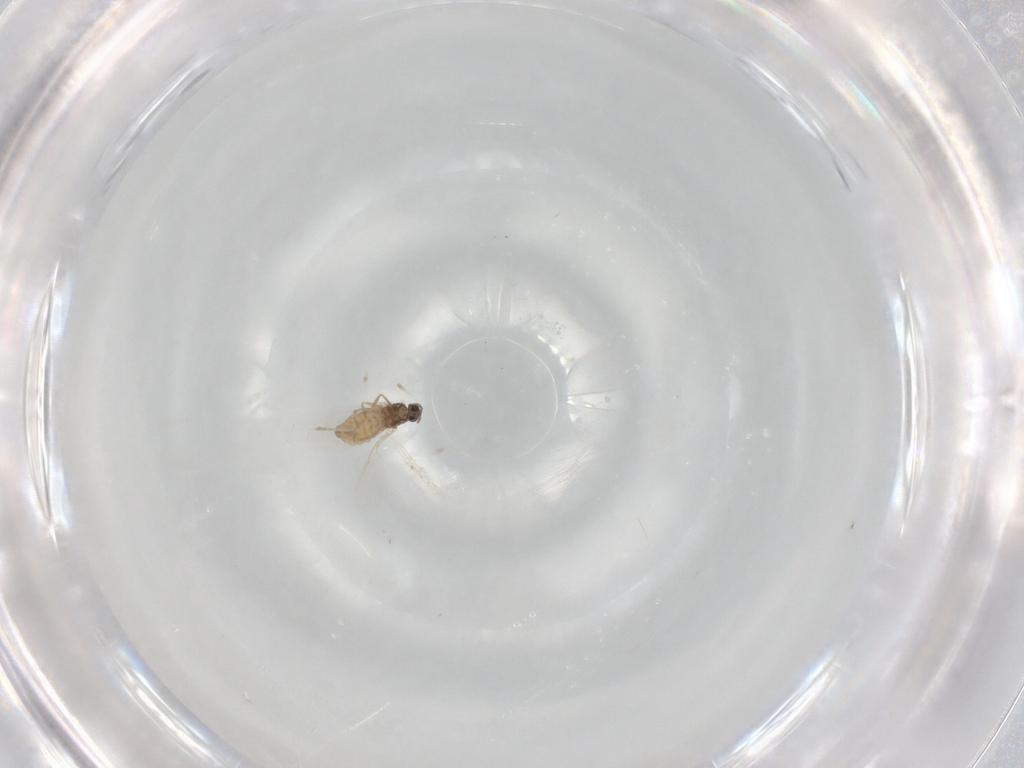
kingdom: Animalia
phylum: Arthropoda
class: Insecta
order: Diptera
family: Cecidomyiidae
